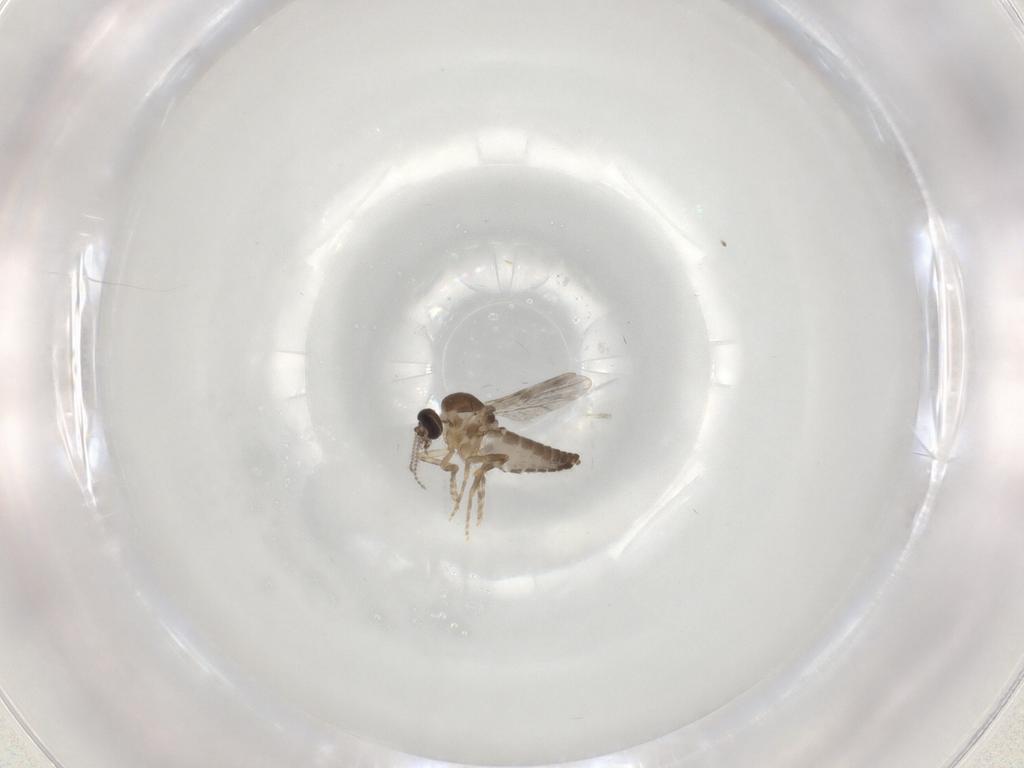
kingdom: Animalia
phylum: Arthropoda
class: Insecta
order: Diptera
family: Ceratopogonidae
